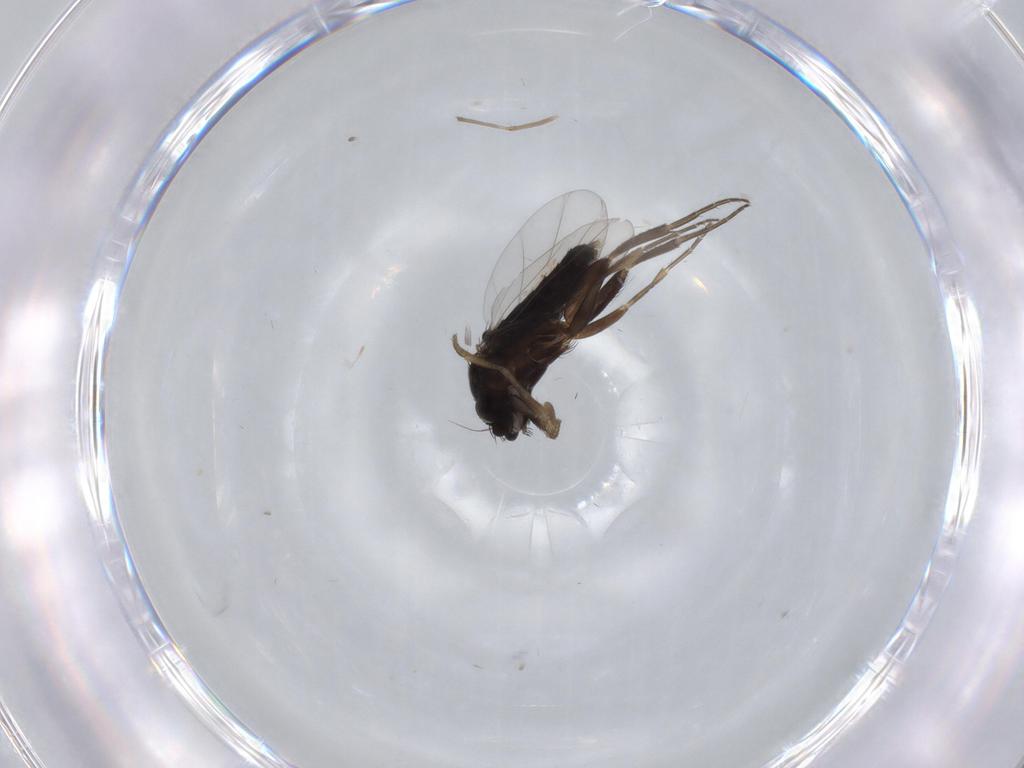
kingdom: Animalia
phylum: Arthropoda
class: Insecta
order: Diptera
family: Phoridae
